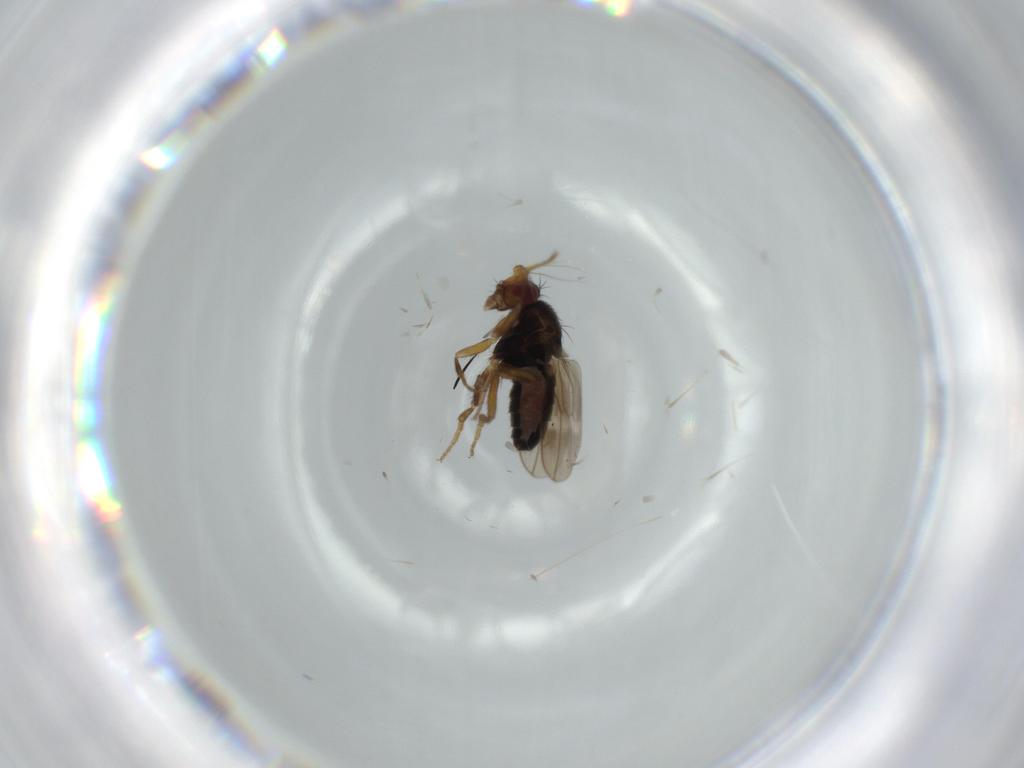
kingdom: Animalia
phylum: Arthropoda
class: Insecta
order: Diptera
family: Sphaeroceridae
